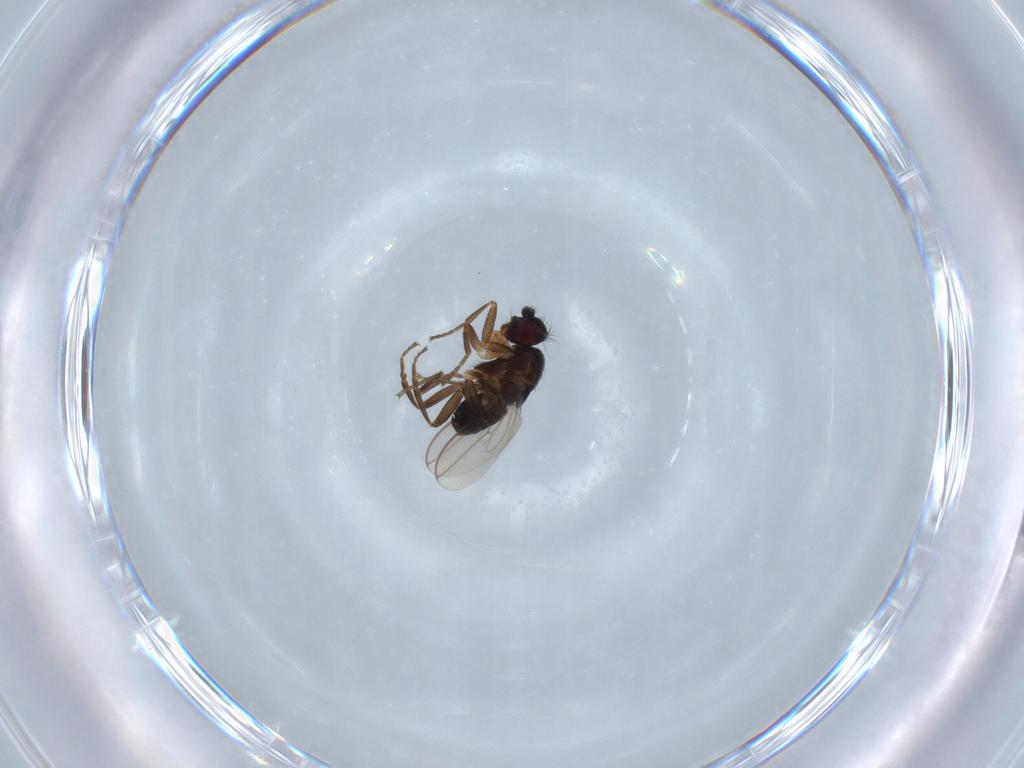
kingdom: Animalia
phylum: Arthropoda
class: Insecta
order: Diptera
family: Sphaeroceridae
